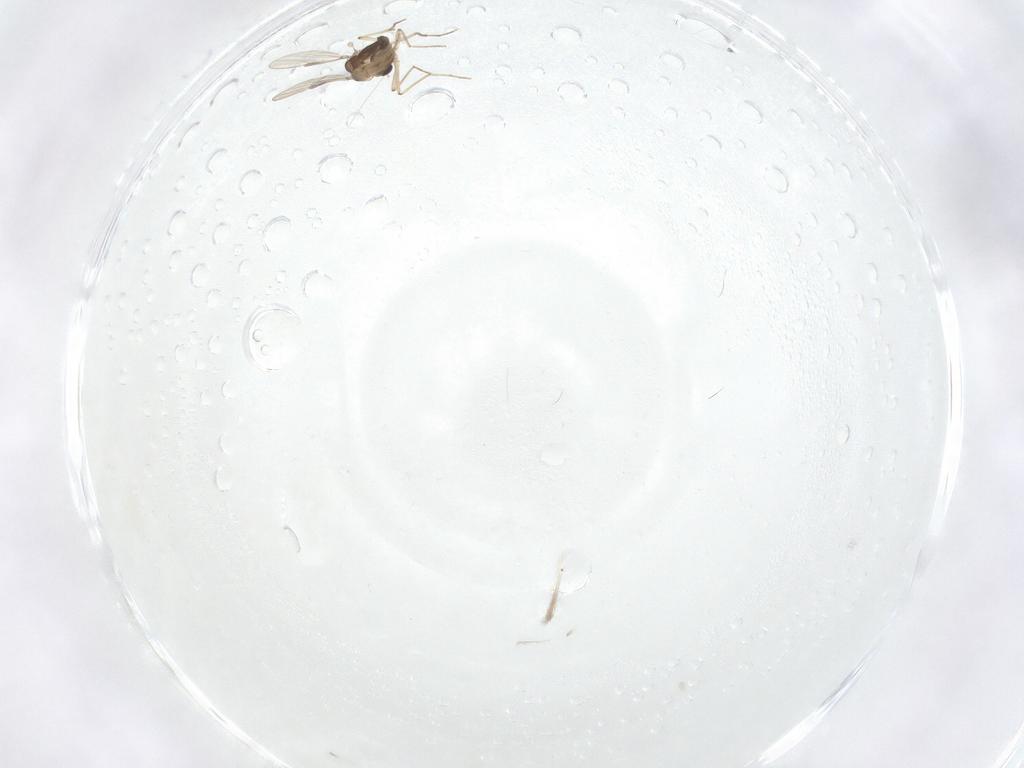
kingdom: Animalia
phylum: Arthropoda
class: Insecta
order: Diptera
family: Chironomidae
